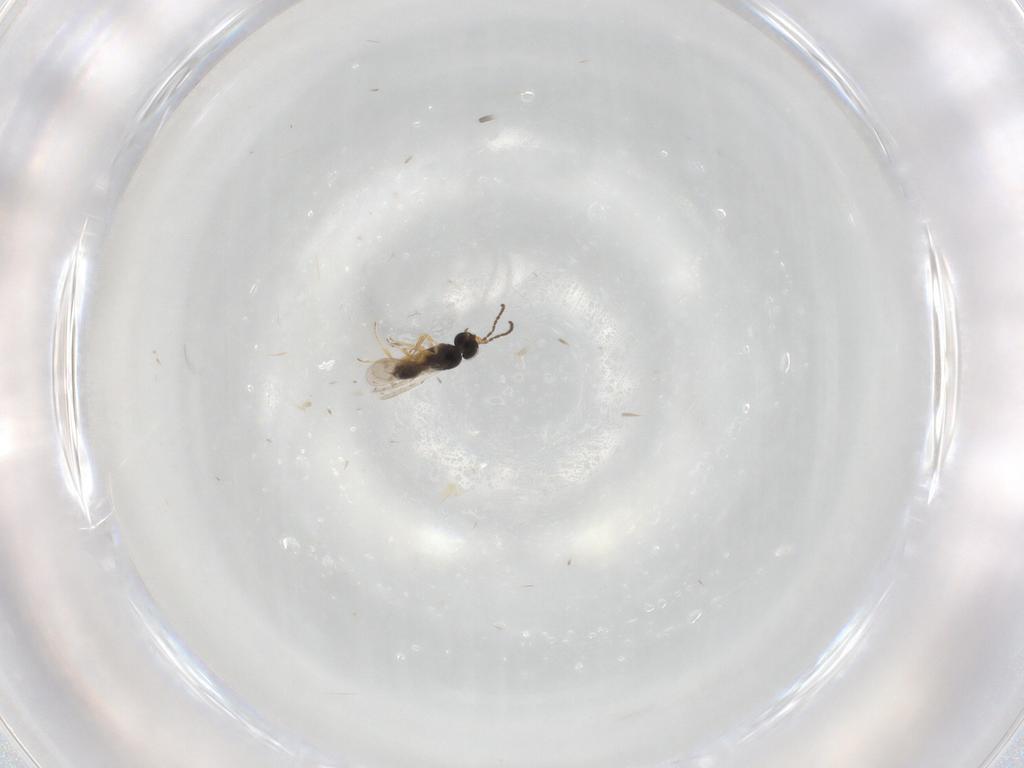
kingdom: Animalia
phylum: Arthropoda
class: Insecta
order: Hymenoptera
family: Scelionidae
